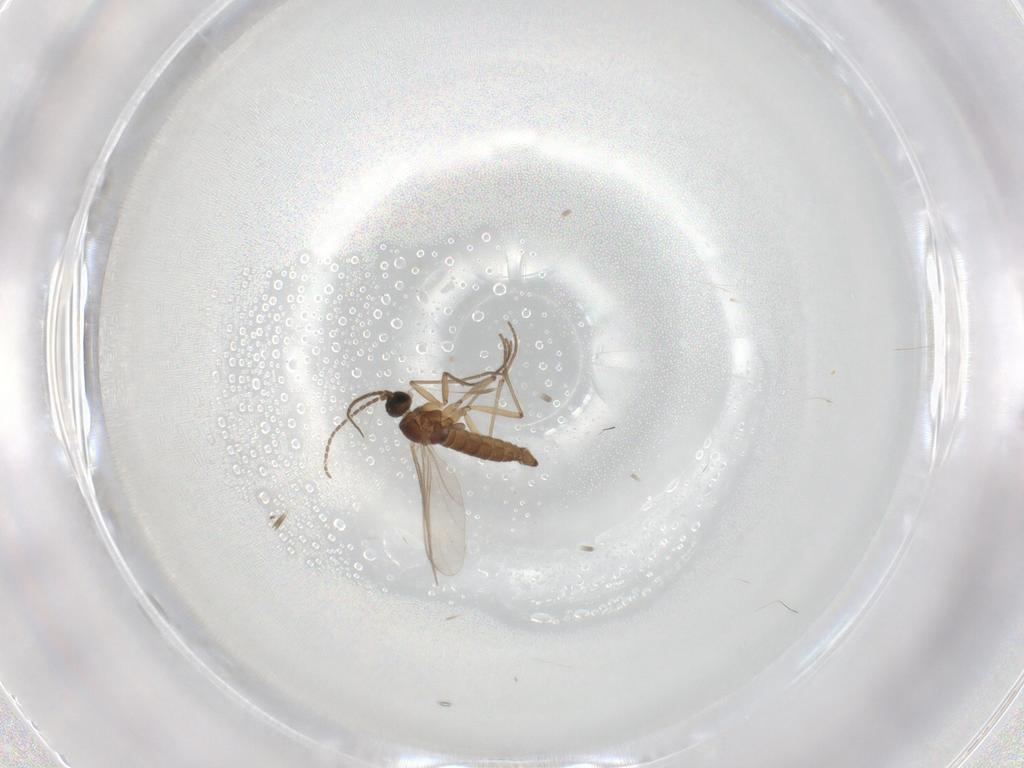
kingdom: Animalia
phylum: Arthropoda
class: Insecta
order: Diptera
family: Sciaridae
